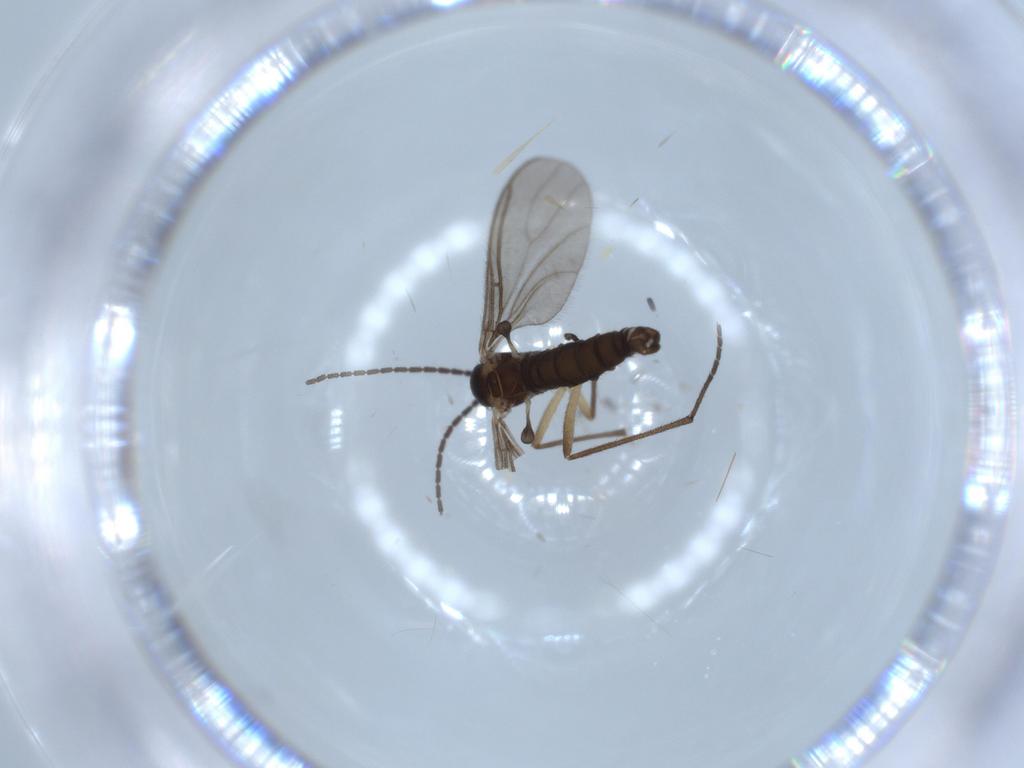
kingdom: Animalia
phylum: Arthropoda
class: Insecta
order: Diptera
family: Sciaridae
